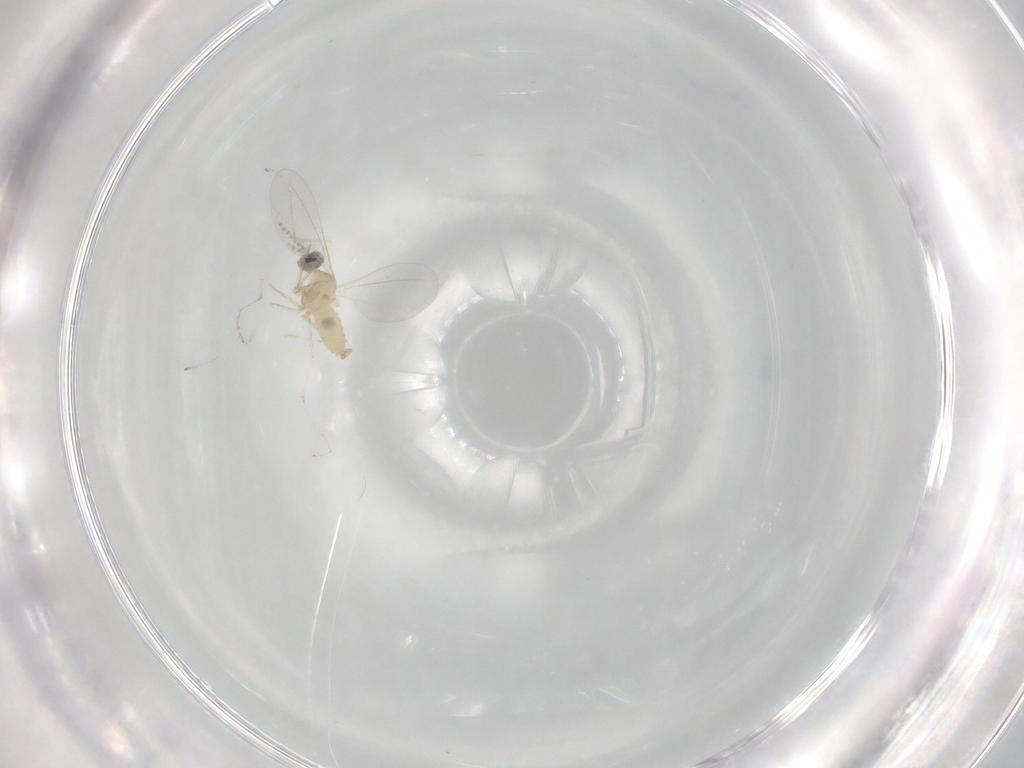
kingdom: Animalia
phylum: Arthropoda
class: Insecta
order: Diptera
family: Cecidomyiidae
